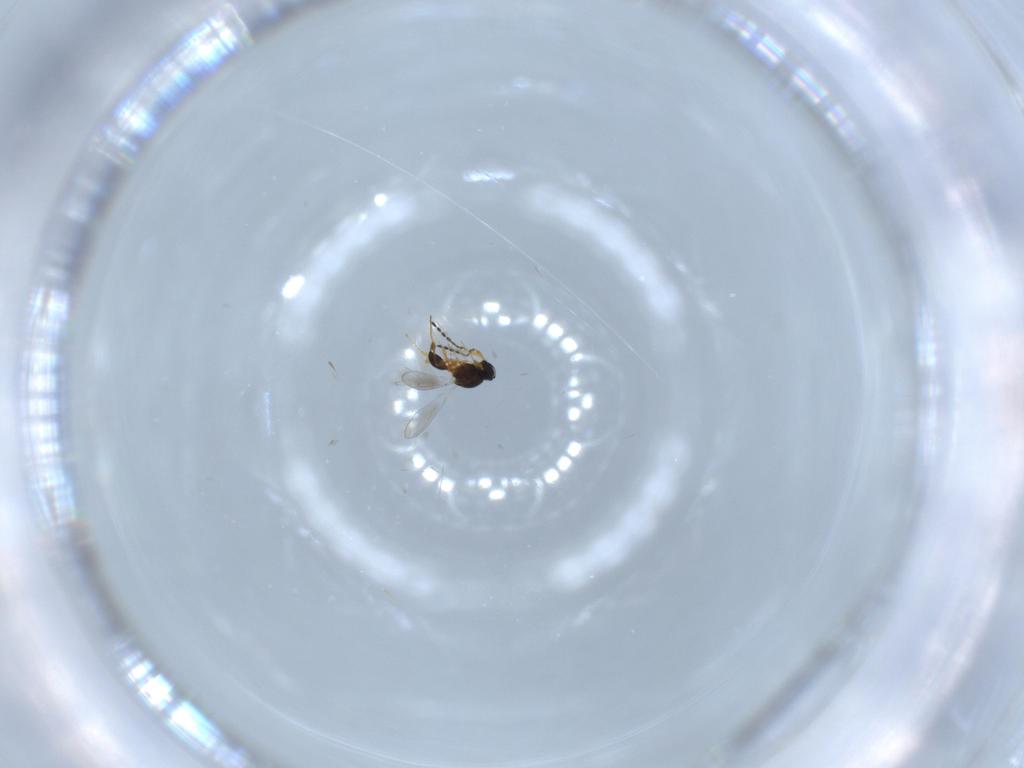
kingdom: Animalia
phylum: Arthropoda
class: Insecta
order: Hymenoptera
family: Platygastridae
